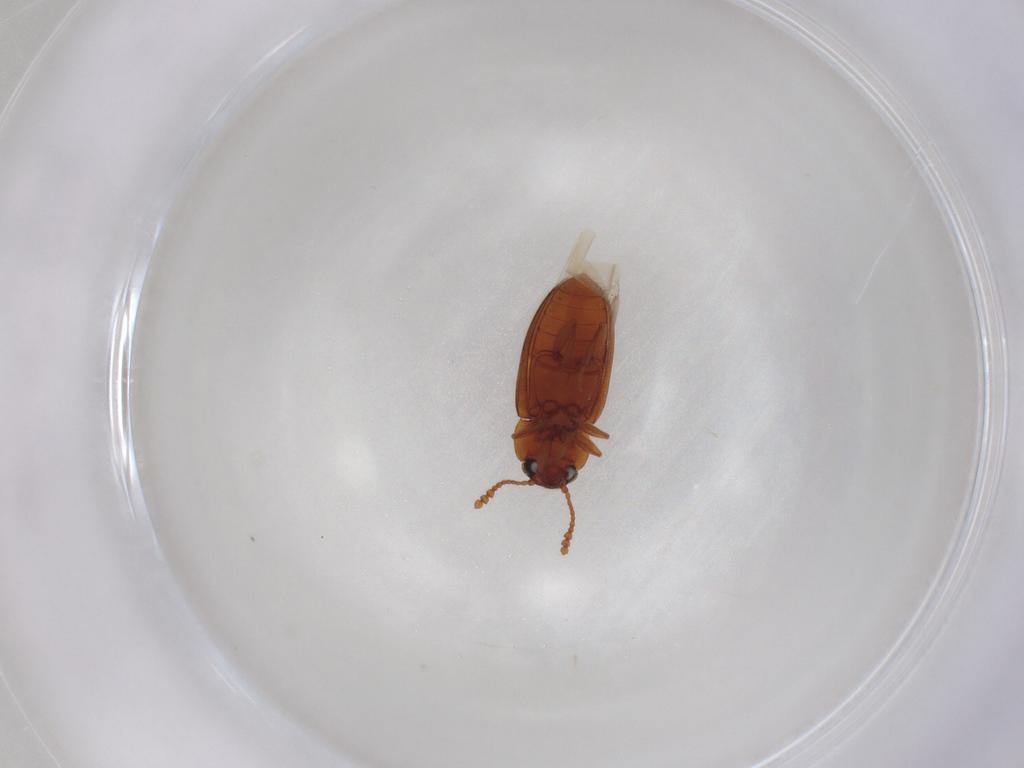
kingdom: Animalia
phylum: Arthropoda
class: Insecta
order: Coleoptera
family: Erotylidae
